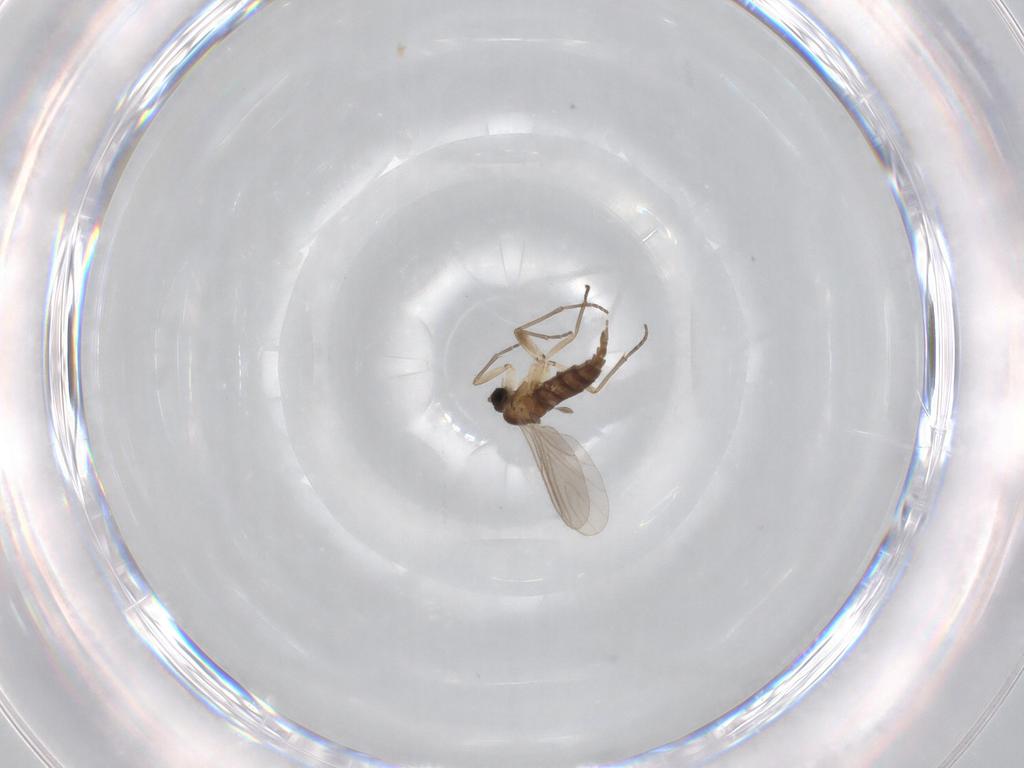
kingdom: Animalia
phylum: Arthropoda
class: Insecta
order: Diptera
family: Sciaridae
